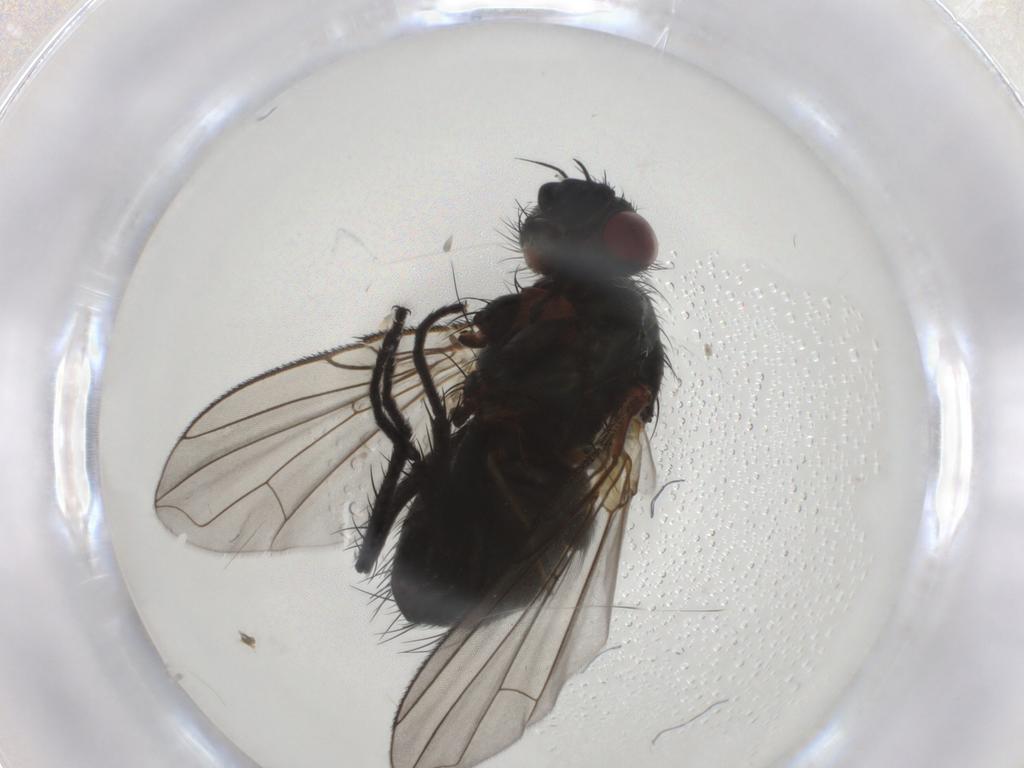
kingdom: Animalia
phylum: Arthropoda
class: Insecta
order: Diptera
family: Tachinidae
